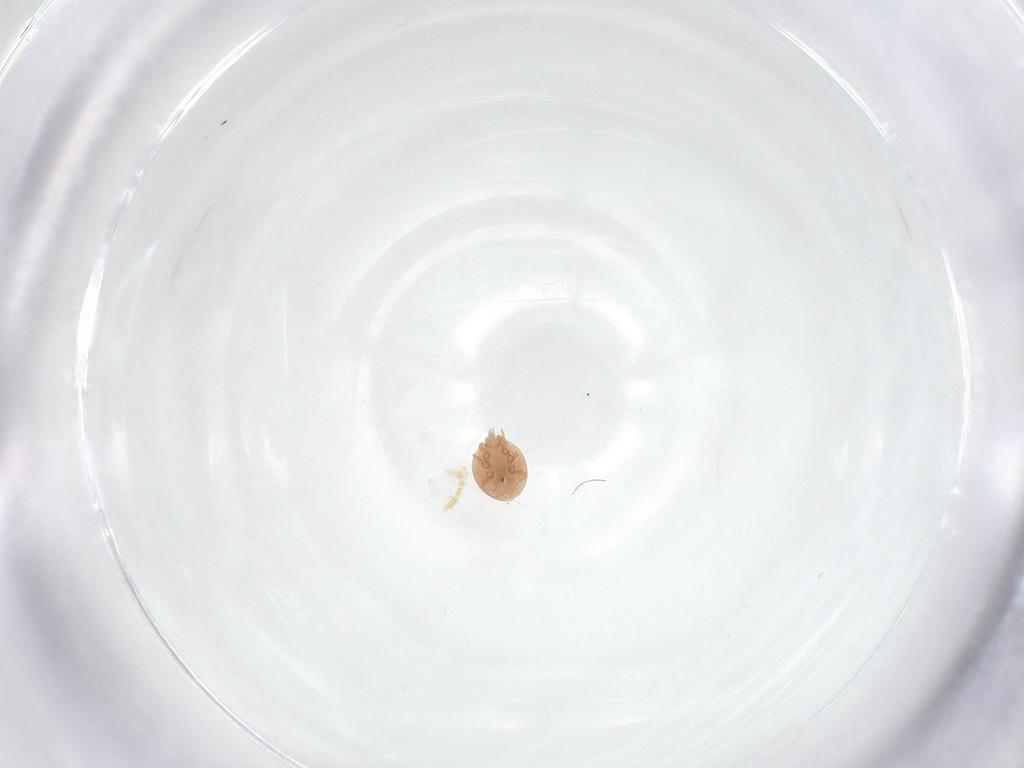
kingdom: Animalia
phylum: Arthropoda
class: Arachnida
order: Mesostigmata
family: Trematuridae
